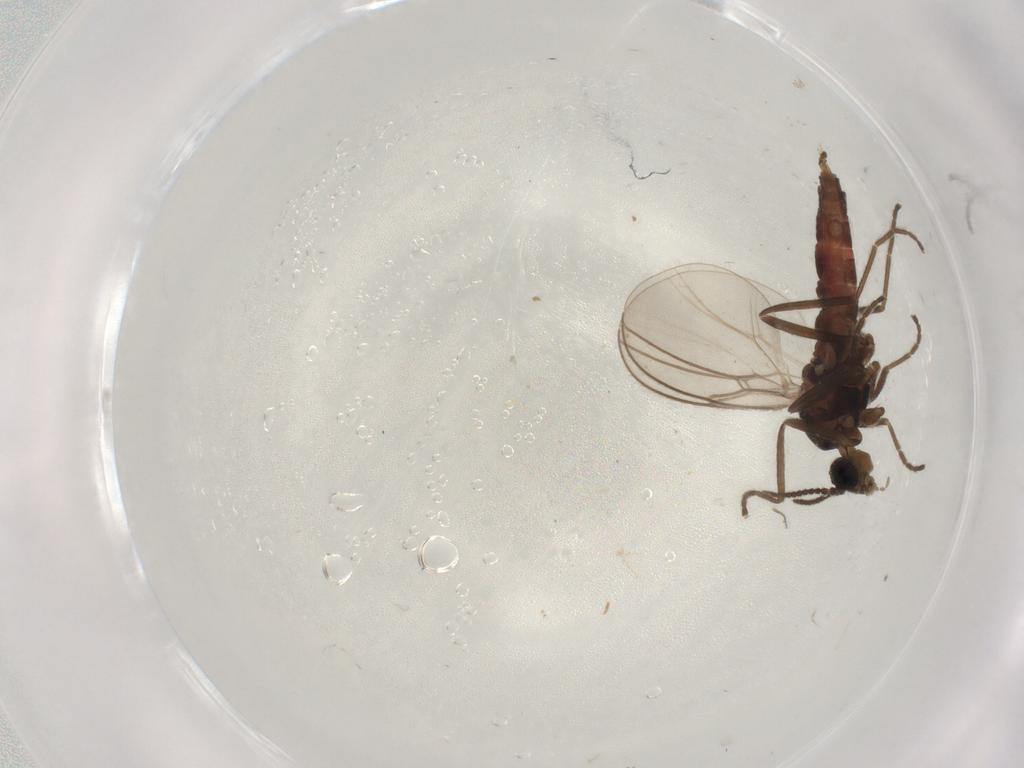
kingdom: Animalia
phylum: Arthropoda
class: Insecta
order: Diptera
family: Cecidomyiidae
